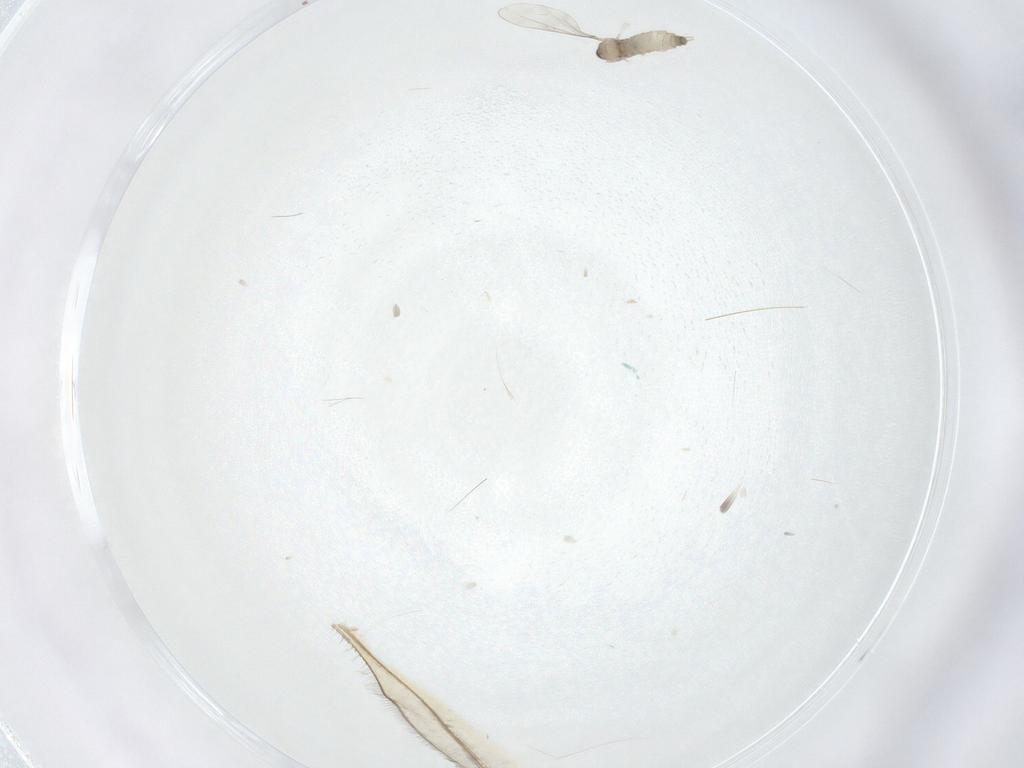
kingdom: Animalia
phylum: Arthropoda
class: Insecta
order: Diptera
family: Cecidomyiidae
